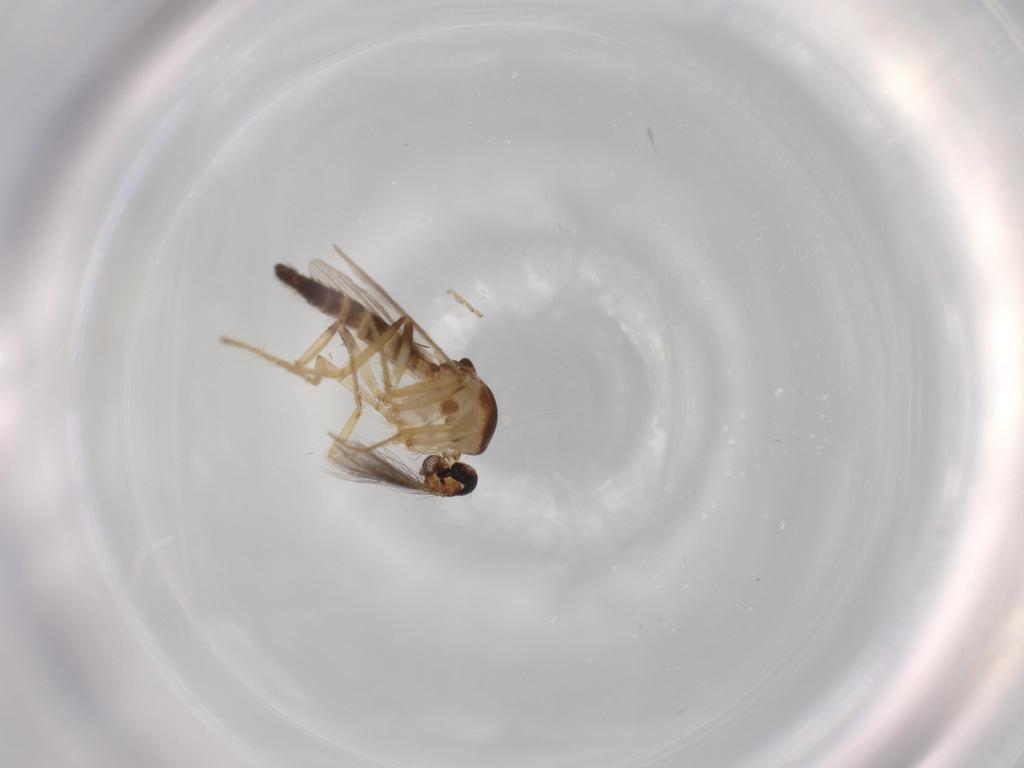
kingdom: Animalia
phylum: Arthropoda
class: Insecta
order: Diptera
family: Ceratopogonidae
